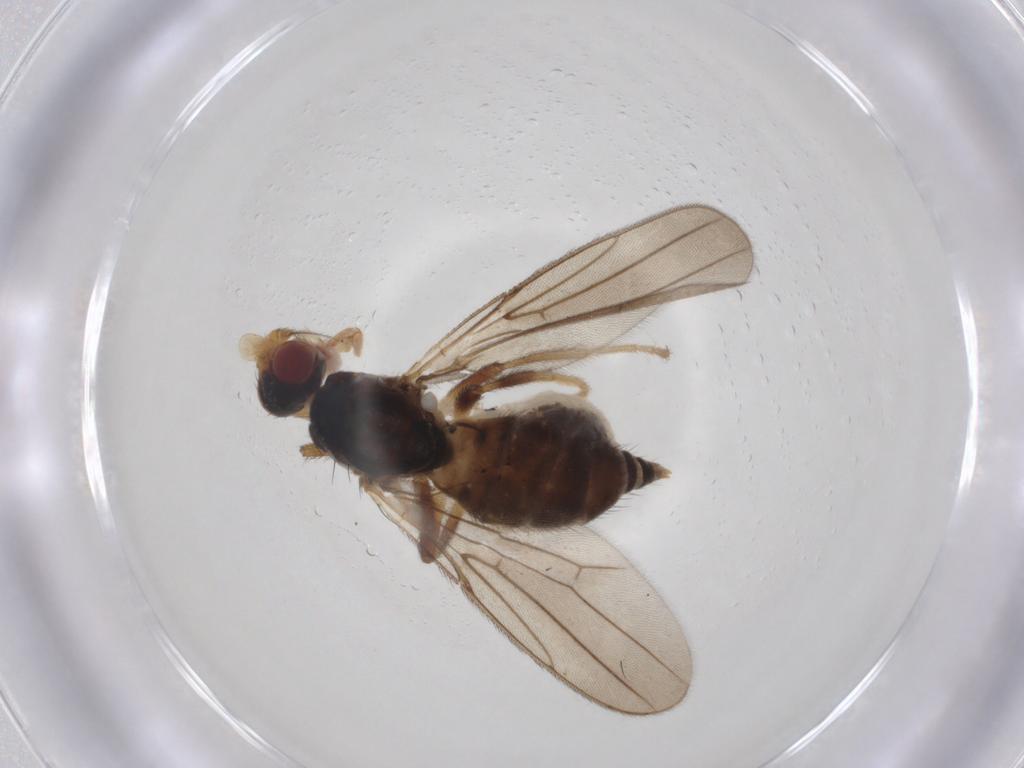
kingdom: Animalia
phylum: Arthropoda
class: Insecta
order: Diptera
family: Chloropidae
